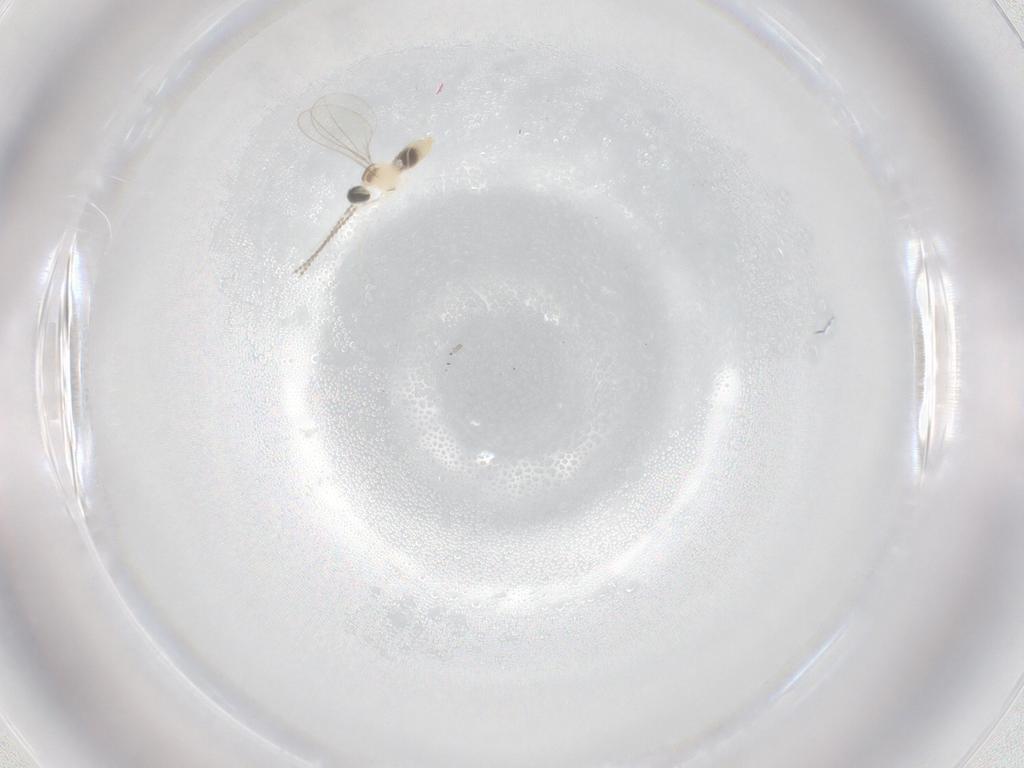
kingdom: Animalia
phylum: Arthropoda
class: Insecta
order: Diptera
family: Cecidomyiidae
